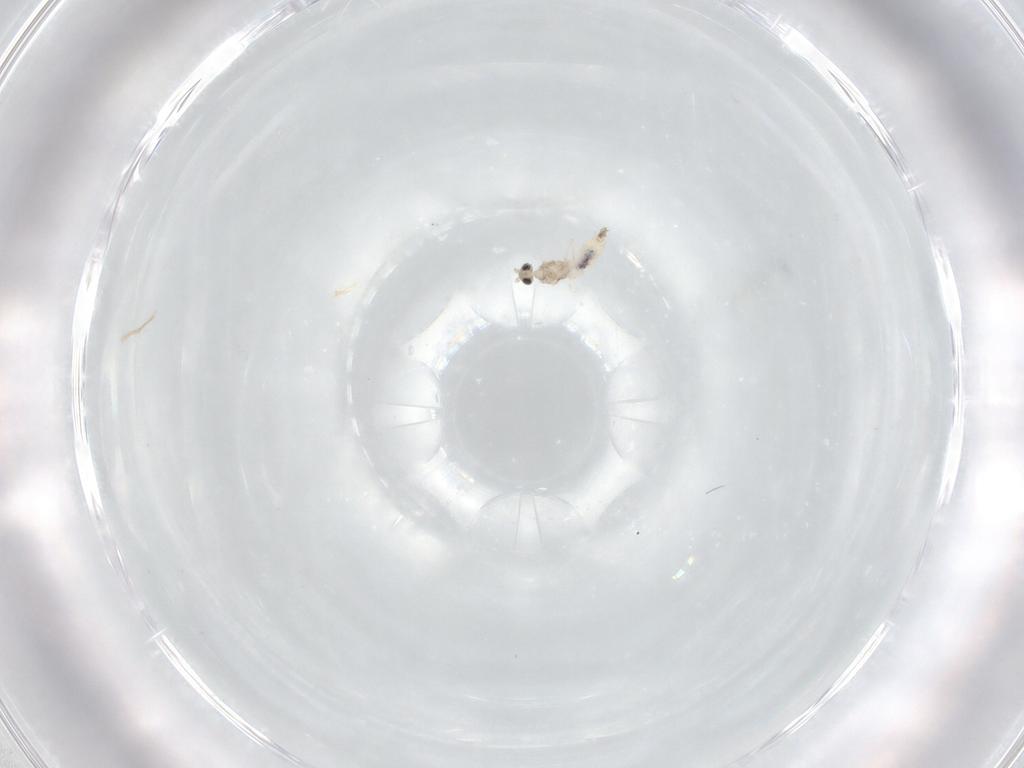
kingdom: Animalia
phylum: Arthropoda
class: Insecta
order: Diptera
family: Cecidomyiidae
